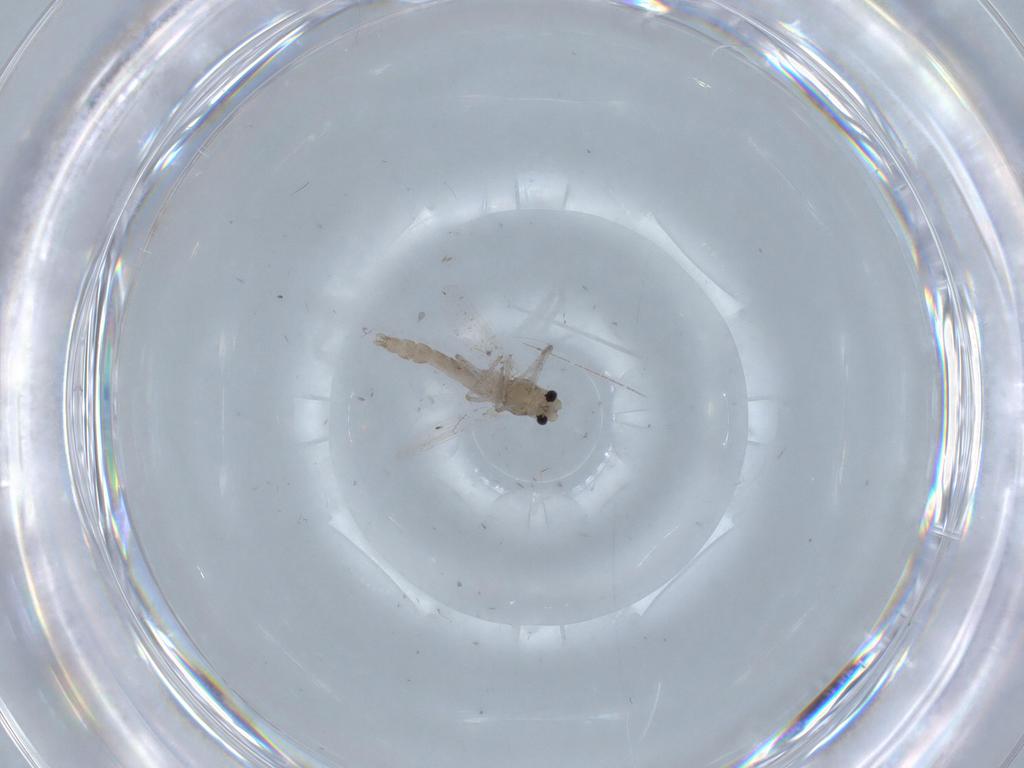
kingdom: Animalia
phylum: Arthropoda
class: Insecta
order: Diptera
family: Chironomidae
